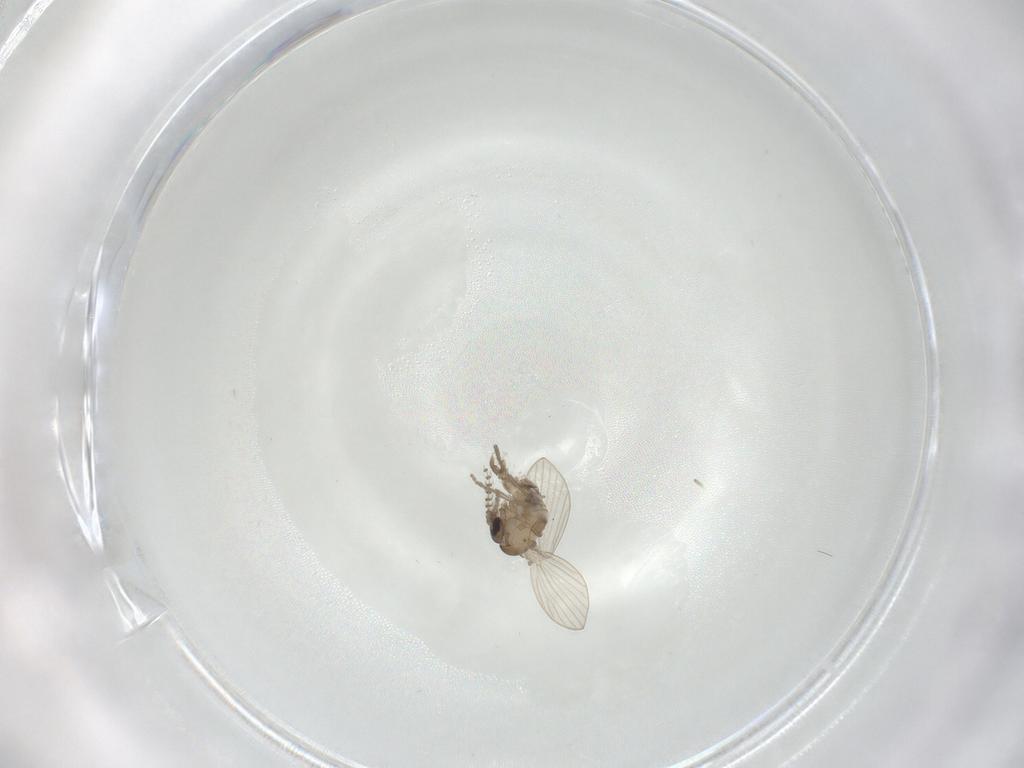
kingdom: Animalia
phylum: Arthropoda
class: Insecta
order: Diptera
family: Psychodidae
